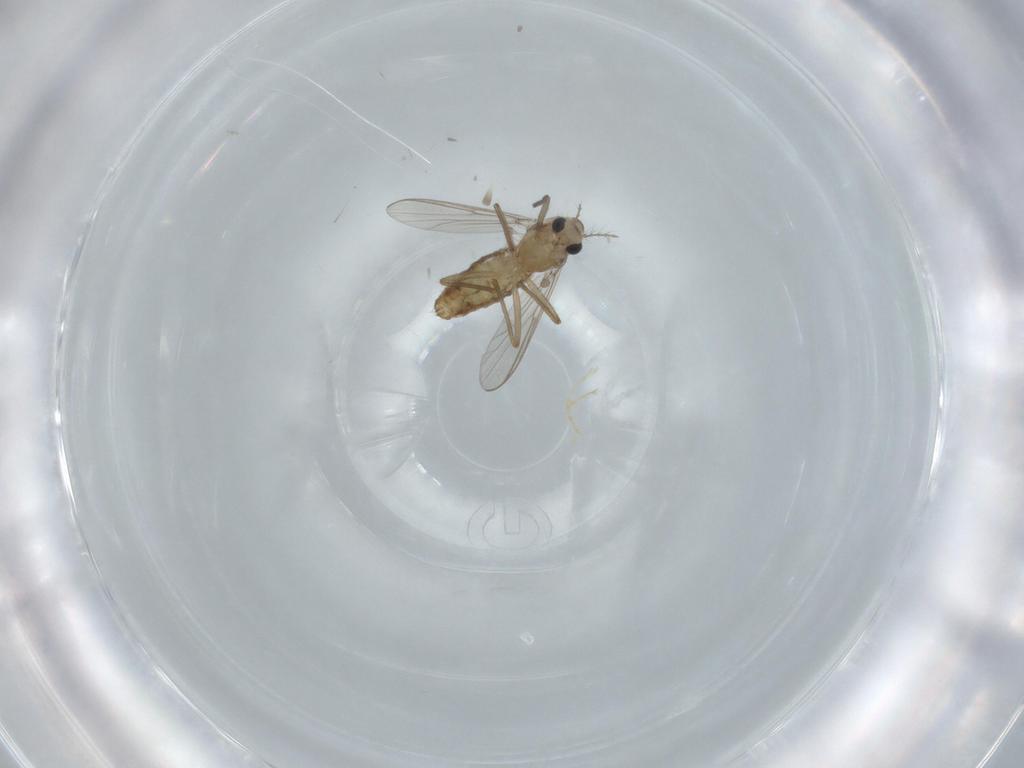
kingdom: Animalia
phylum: Arthropoda
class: Insecta
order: Diptera
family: Chironomidae
